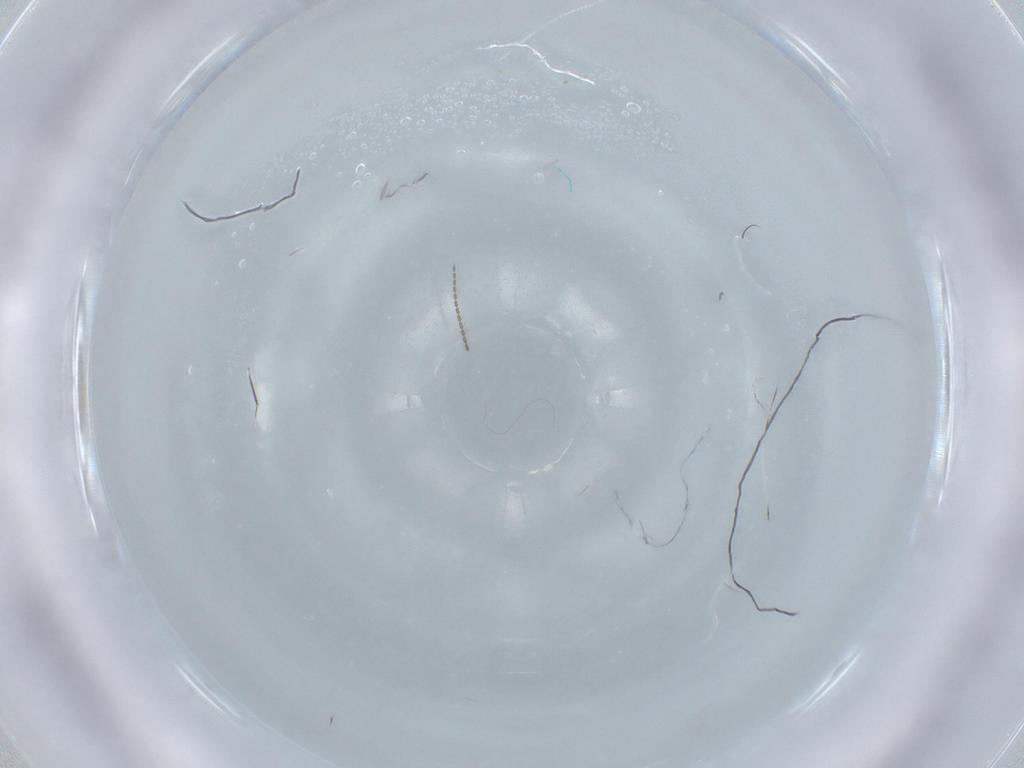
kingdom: Animalia
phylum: Arthropoda
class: Insecta
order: Diptera
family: Cecidomyiidae
